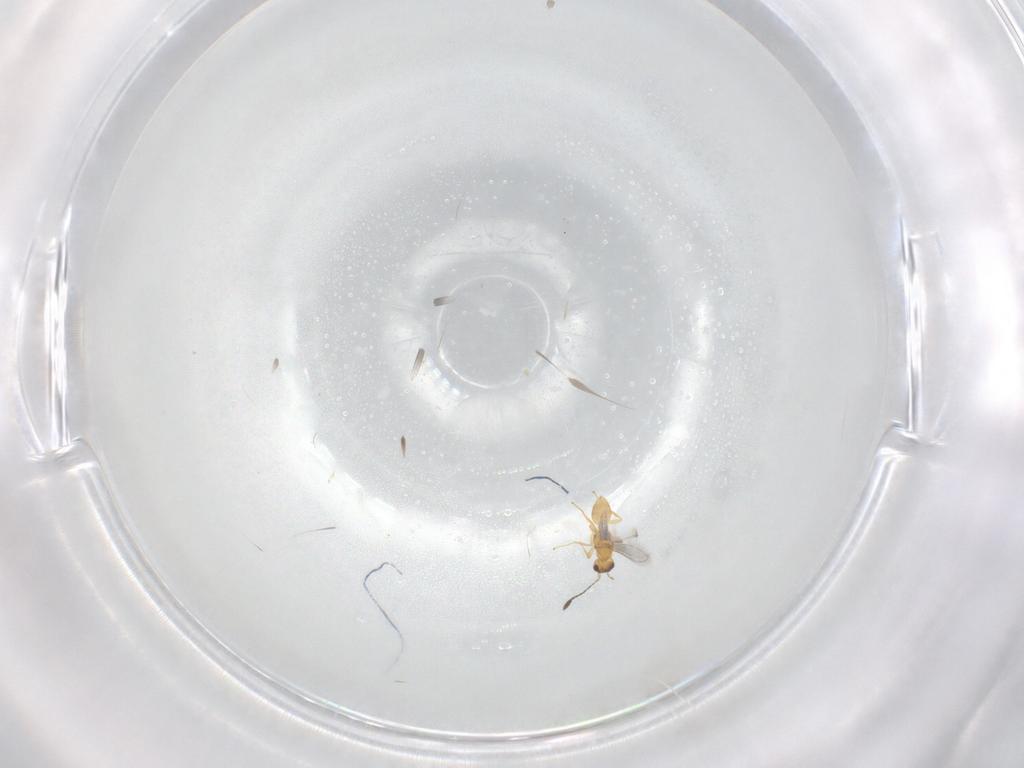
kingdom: Animalia
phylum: Arthropoda
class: Insecta
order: Hymenoptera
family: Mymaridae
